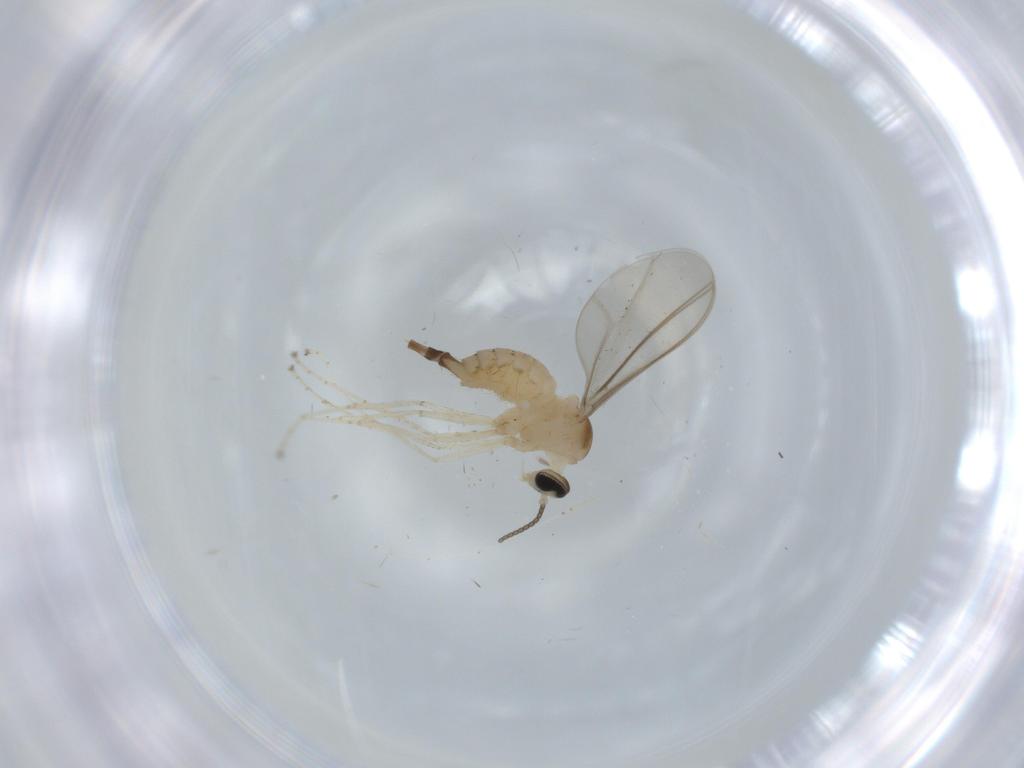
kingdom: Animalia
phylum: Arthropoda
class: Insecta
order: Diptera
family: Cecidomyiidae
